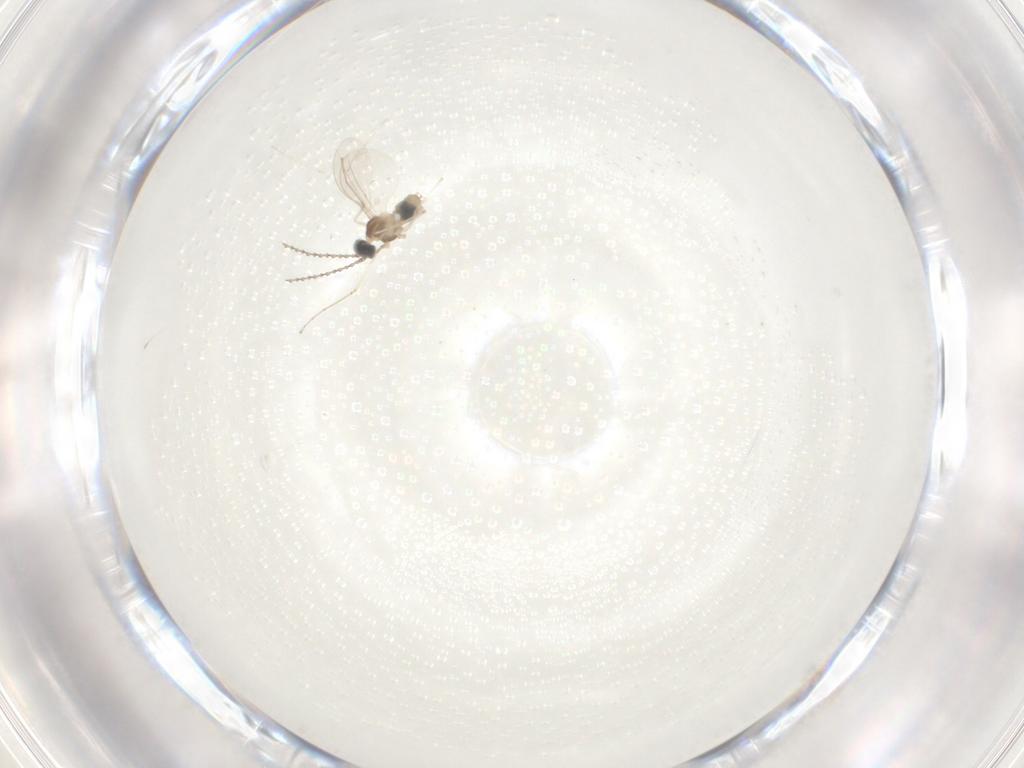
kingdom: Animalia
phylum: Arthropoda
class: Insecta
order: Diptera
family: Cecidomyiidae
